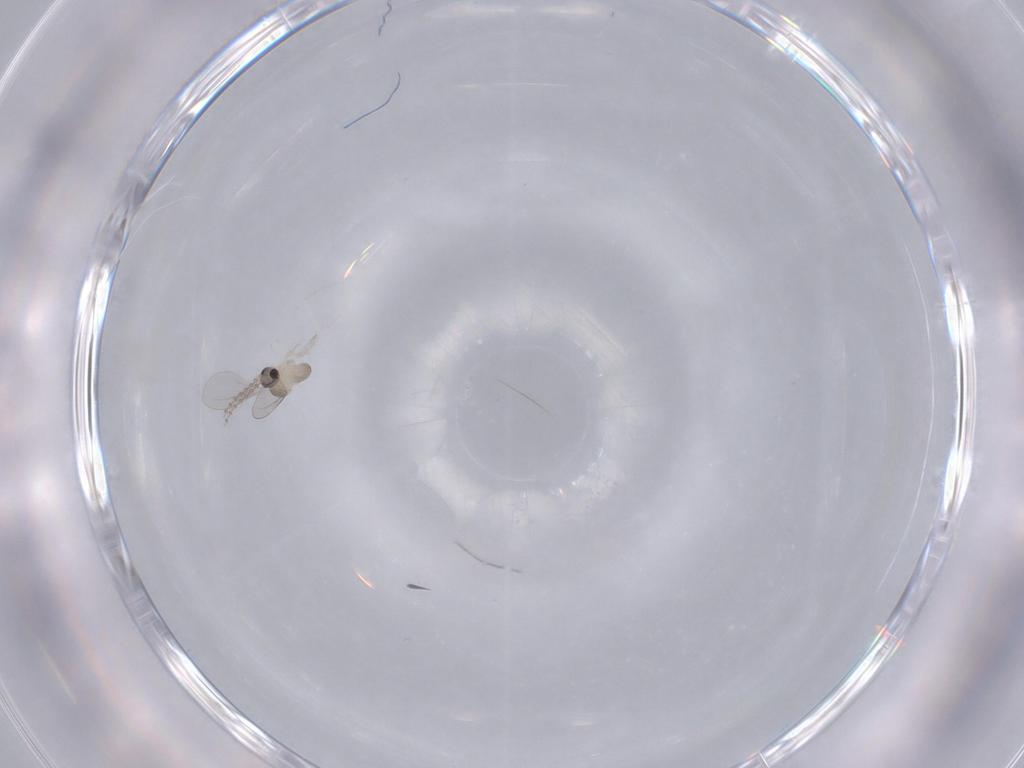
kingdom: Animalia
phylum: Arthropoda
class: Insecta
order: Diptera
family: Cecidomyiidae
